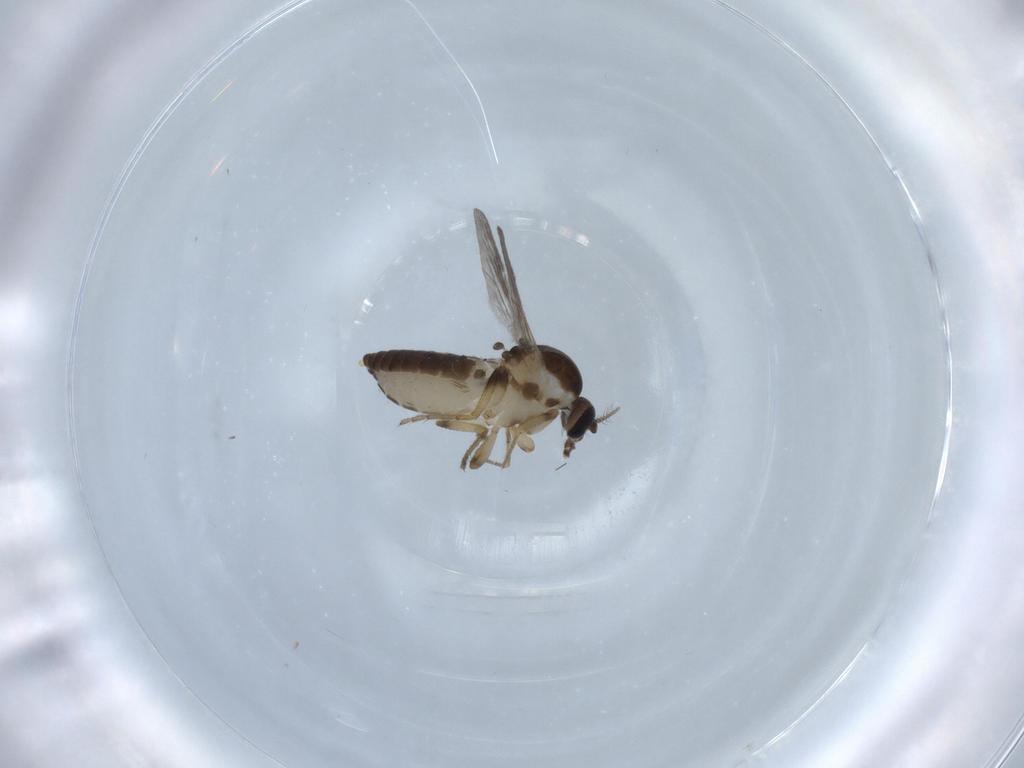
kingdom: Animalia
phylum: Arthropoda
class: Insecta
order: Diptera
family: Ceratopogonidae
